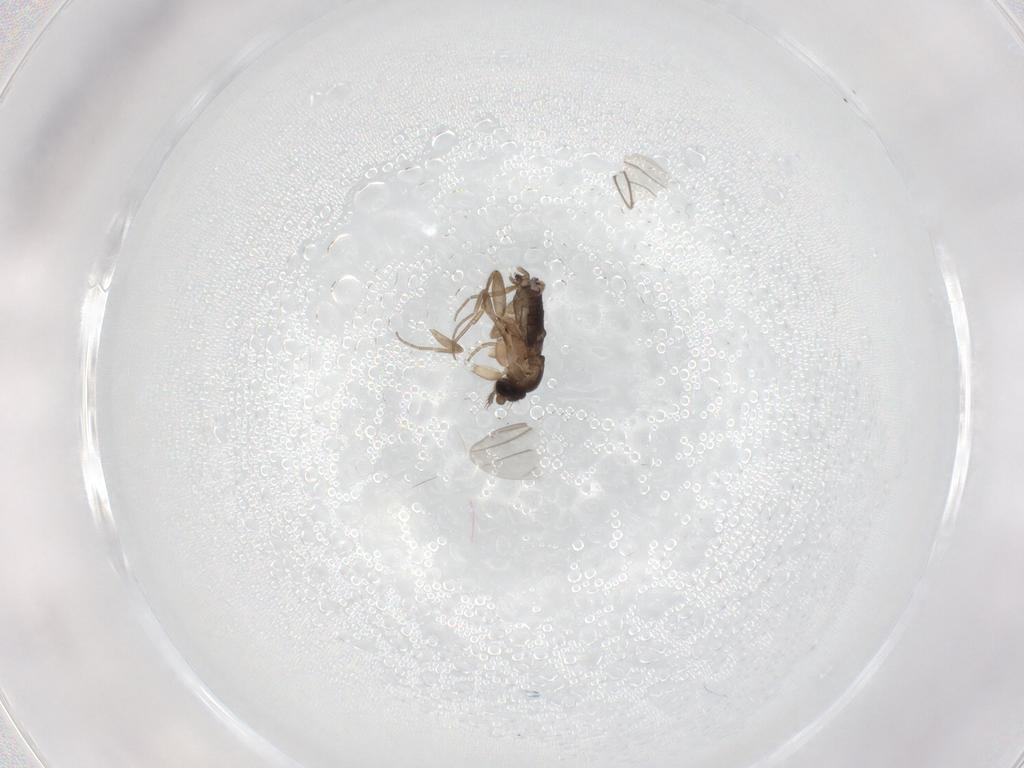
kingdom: Animalia
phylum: Arthropoda
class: Insecta
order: Diptera
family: Phoridae
